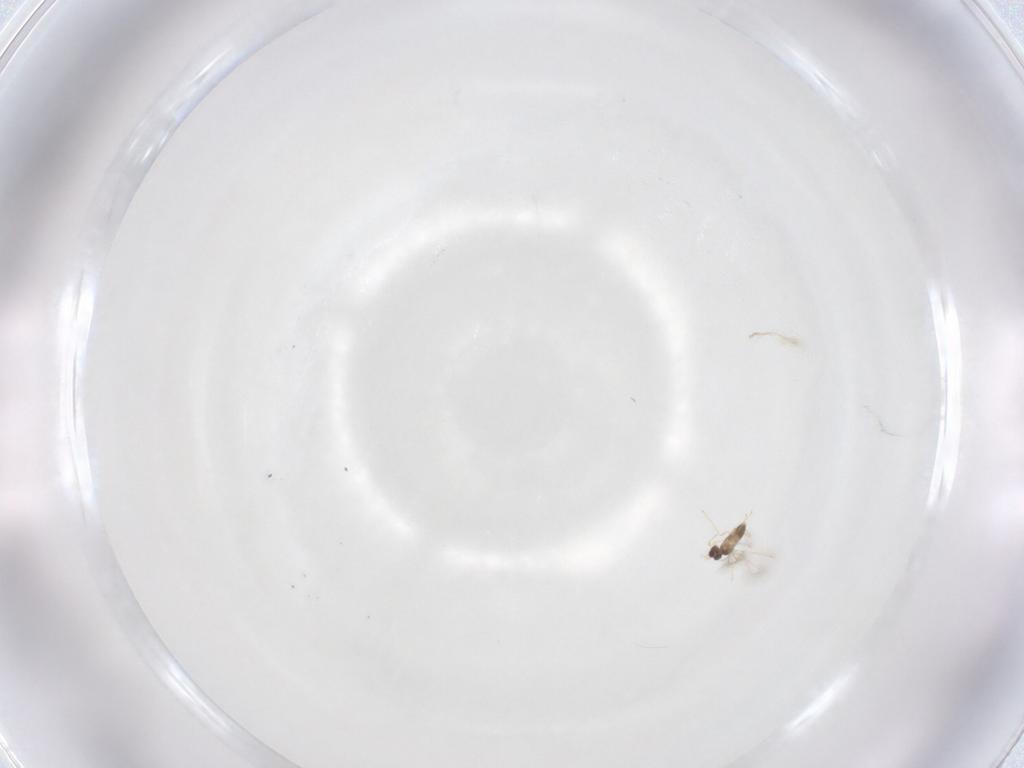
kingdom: Animalia
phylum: Arthropoda
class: Insecta
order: Hymenoptera
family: Mymaridae
